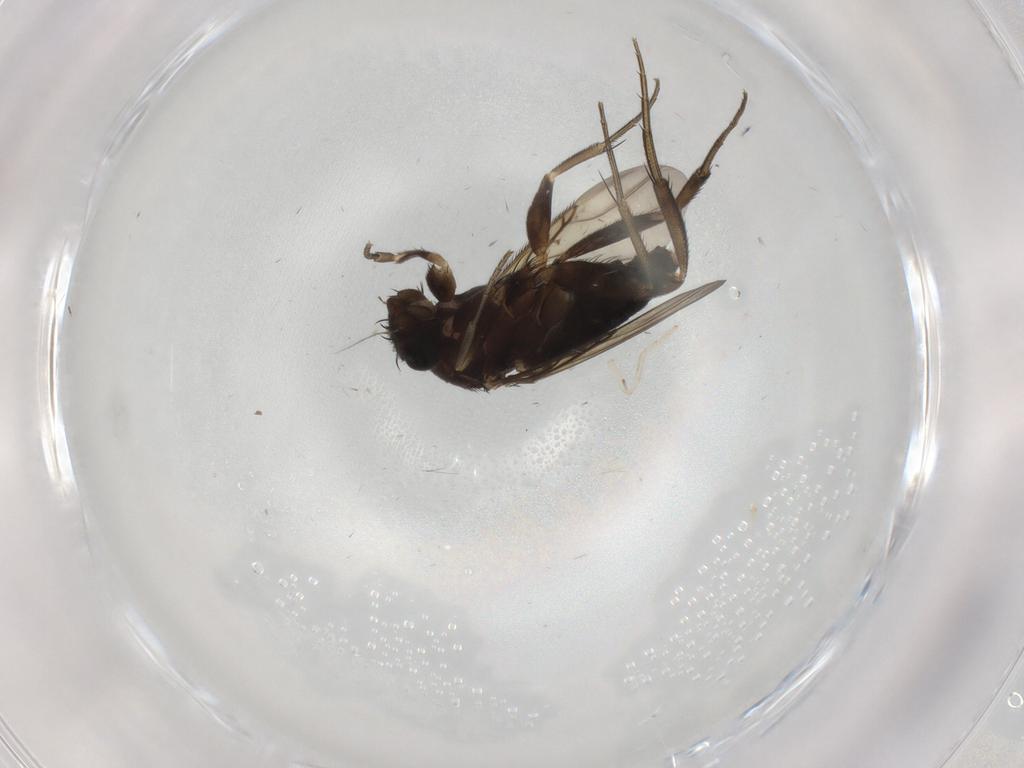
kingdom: Animalia
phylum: Arthropoda
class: Insecta
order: Diptera
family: Phoridae
